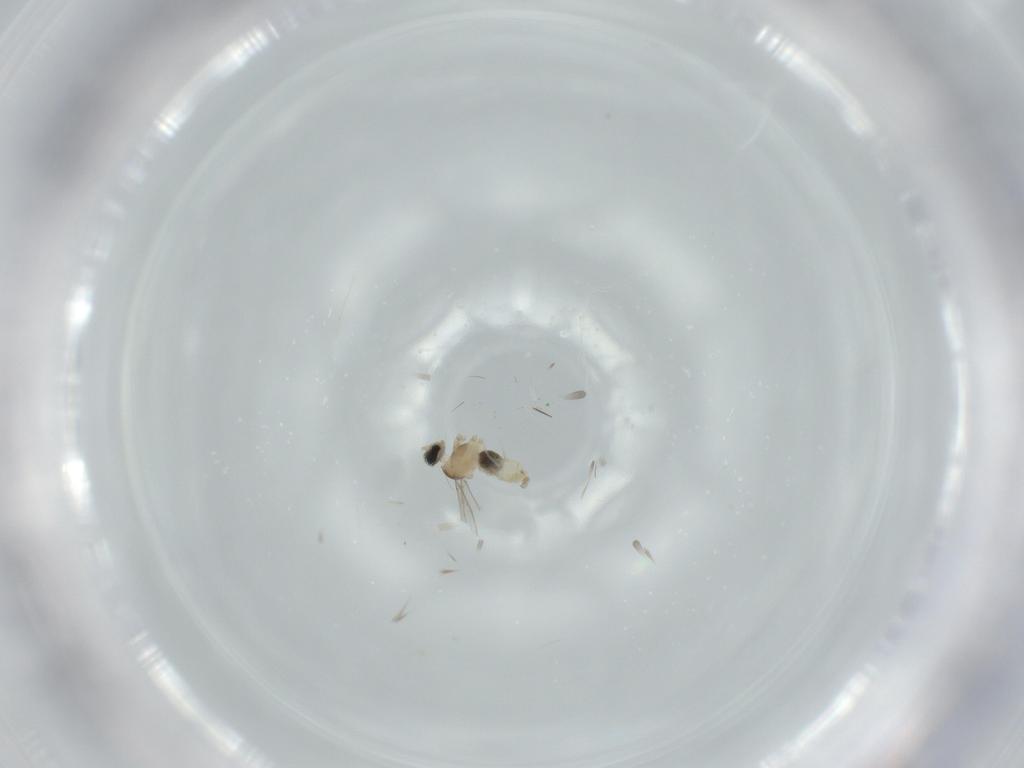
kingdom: Animalia
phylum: Arthropoda
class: Insecta
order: Diptera
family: Cecidomyiidae
